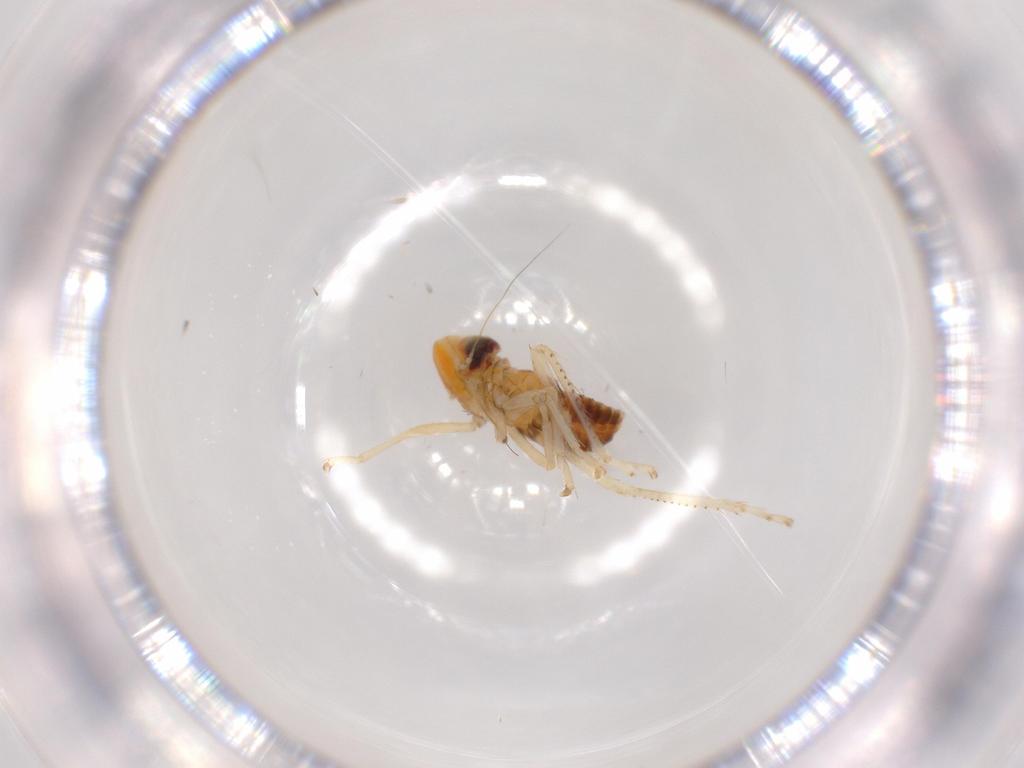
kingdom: Animalia
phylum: Arthropoda
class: Insecta
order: Hemiptera
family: Cicadellidae
